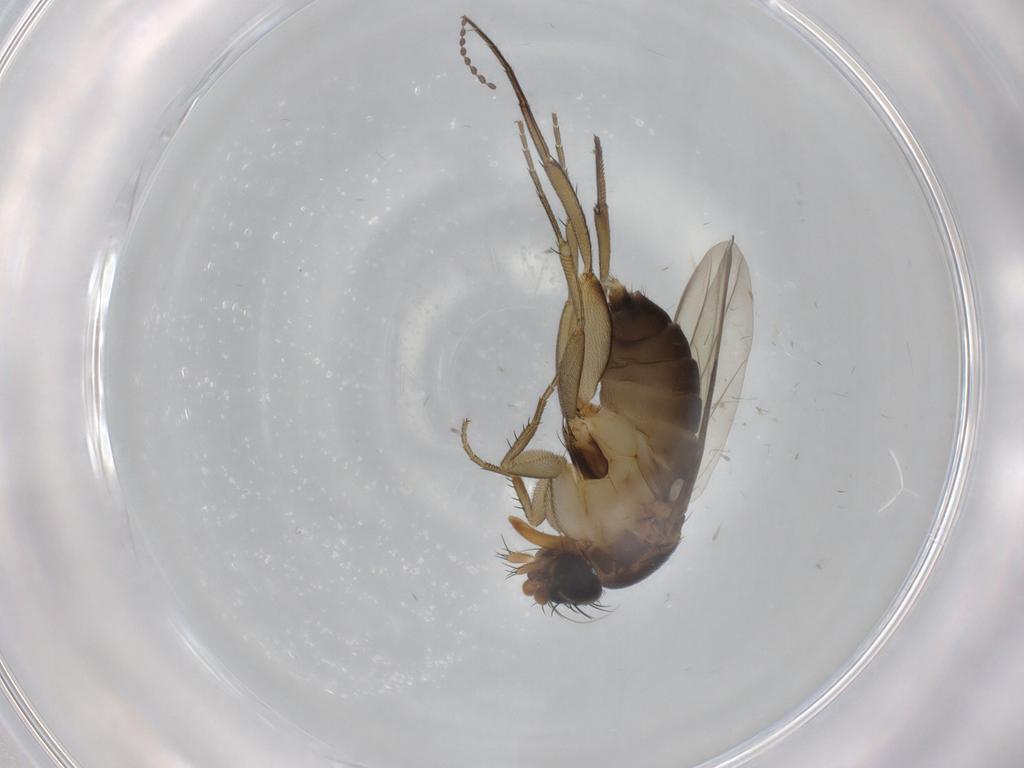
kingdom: Animalia
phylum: Arthropoda
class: Insecta
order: Diptera
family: Phoridae
